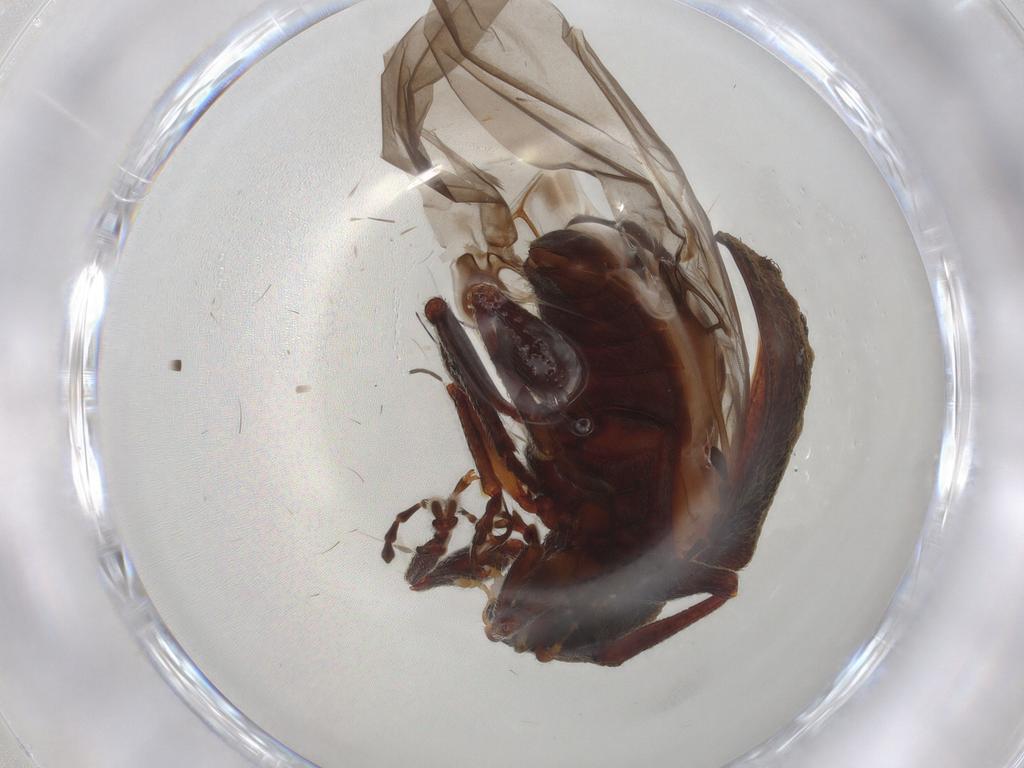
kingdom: Animalia
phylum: Arthropoda
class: Insecta
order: Coleoptera
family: Chrysomelidae
